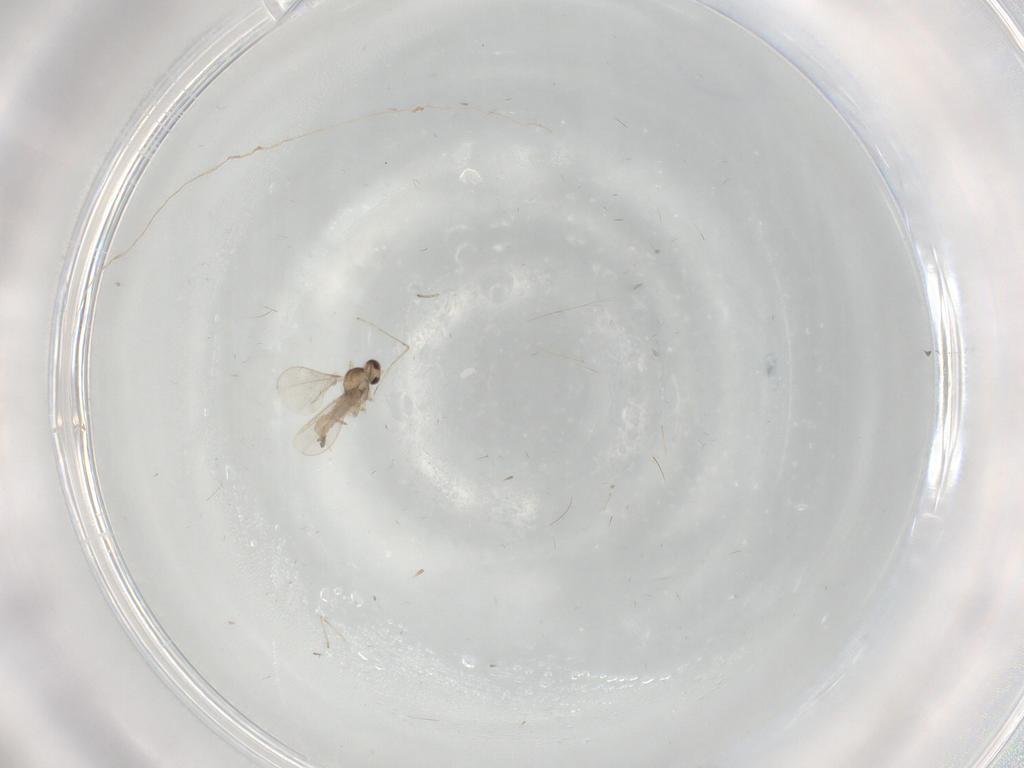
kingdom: Animalia
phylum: Arthropoda
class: Insecta
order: Diptera
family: Cecidomyiidae
